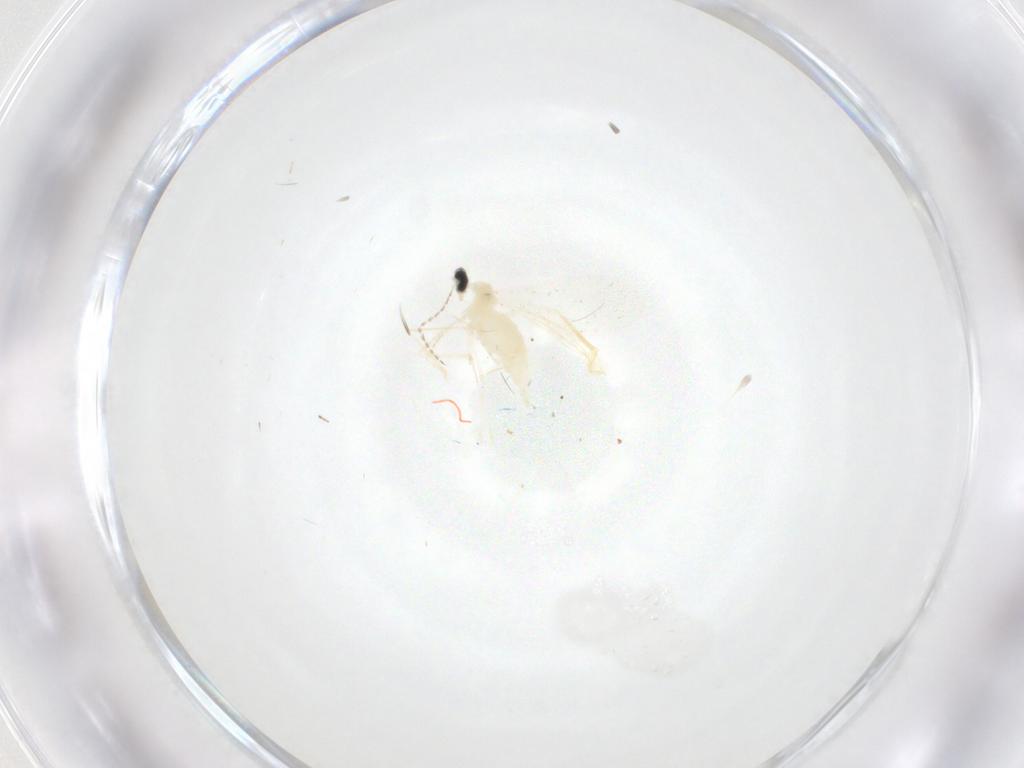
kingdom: Animalia
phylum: Arthropoda
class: Insecta
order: Diptera
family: Cecidomyiidae
